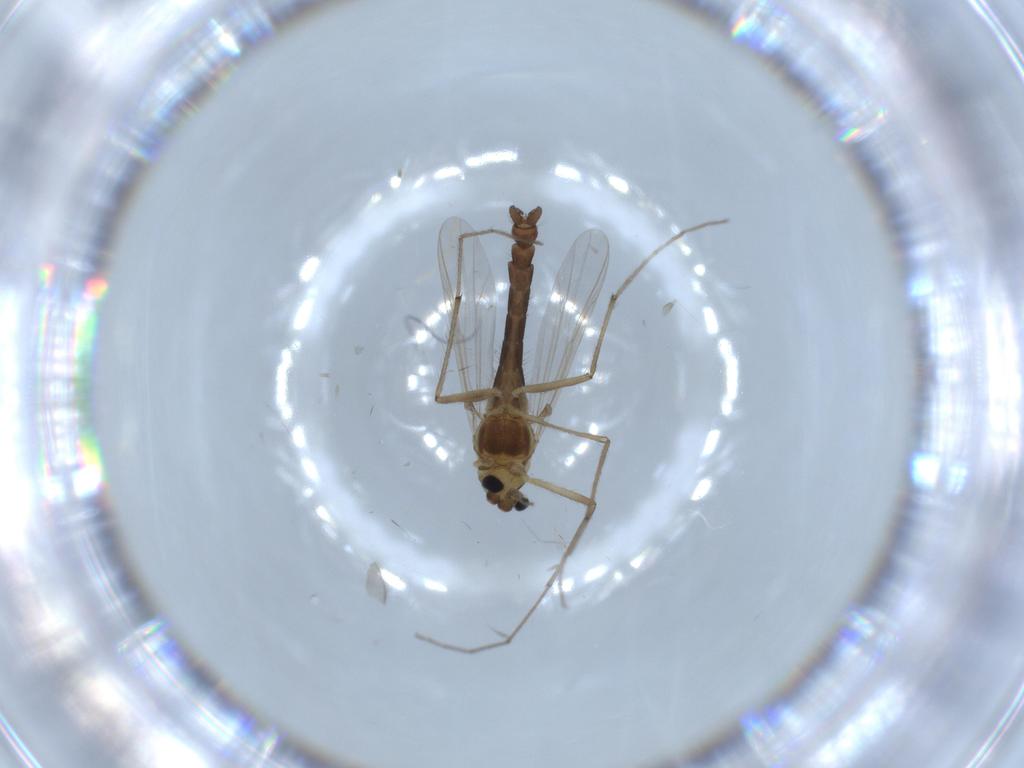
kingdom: Animalia
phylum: Arthropoda
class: Insecta
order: Diptera
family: Chironomidae
